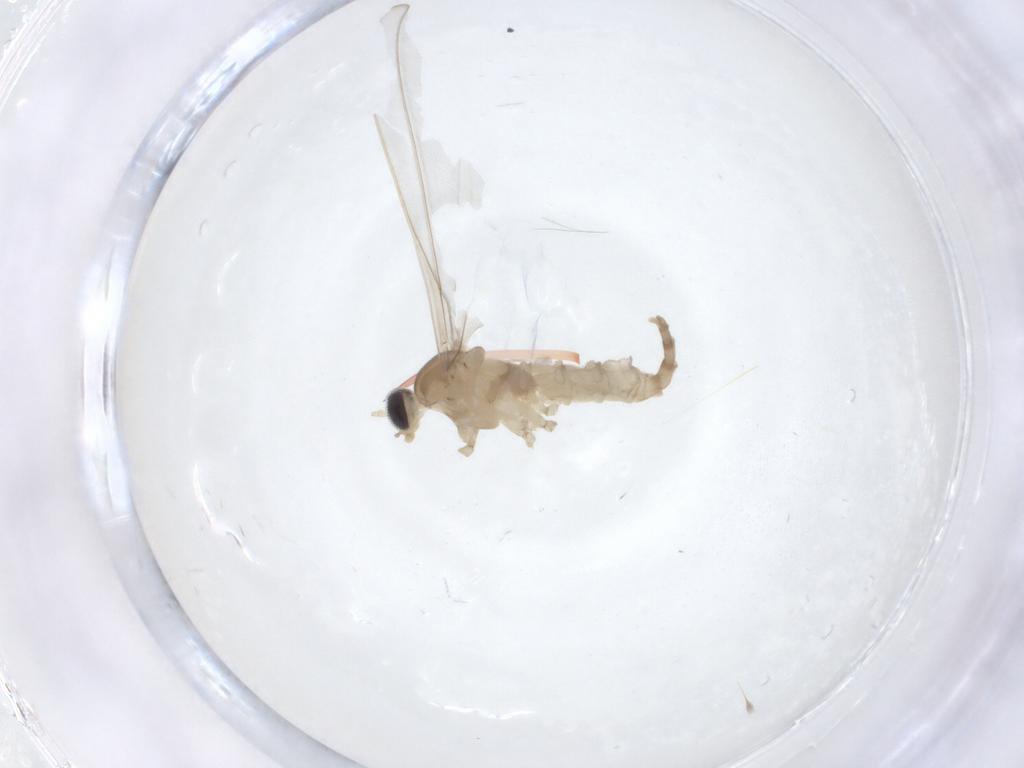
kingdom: Animalia
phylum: Arthropoda
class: Insecta
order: Diptera
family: Cecidomyiidae
